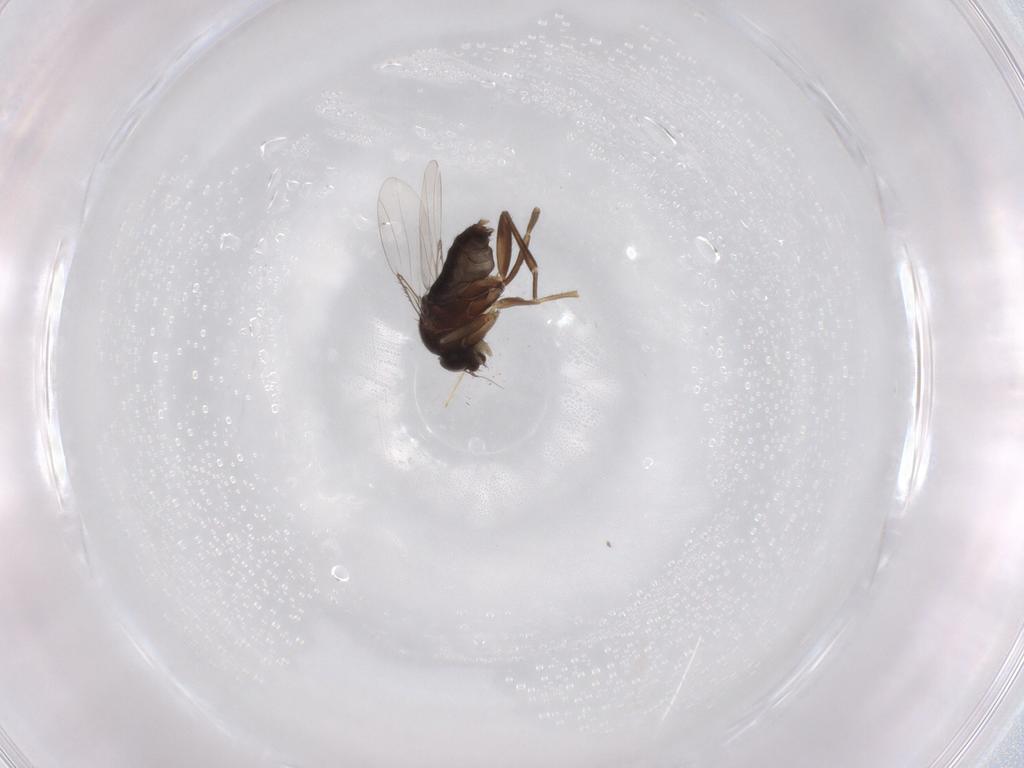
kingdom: Animalia
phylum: Arthropoda
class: Insecta
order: Diptera
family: Phoridae
